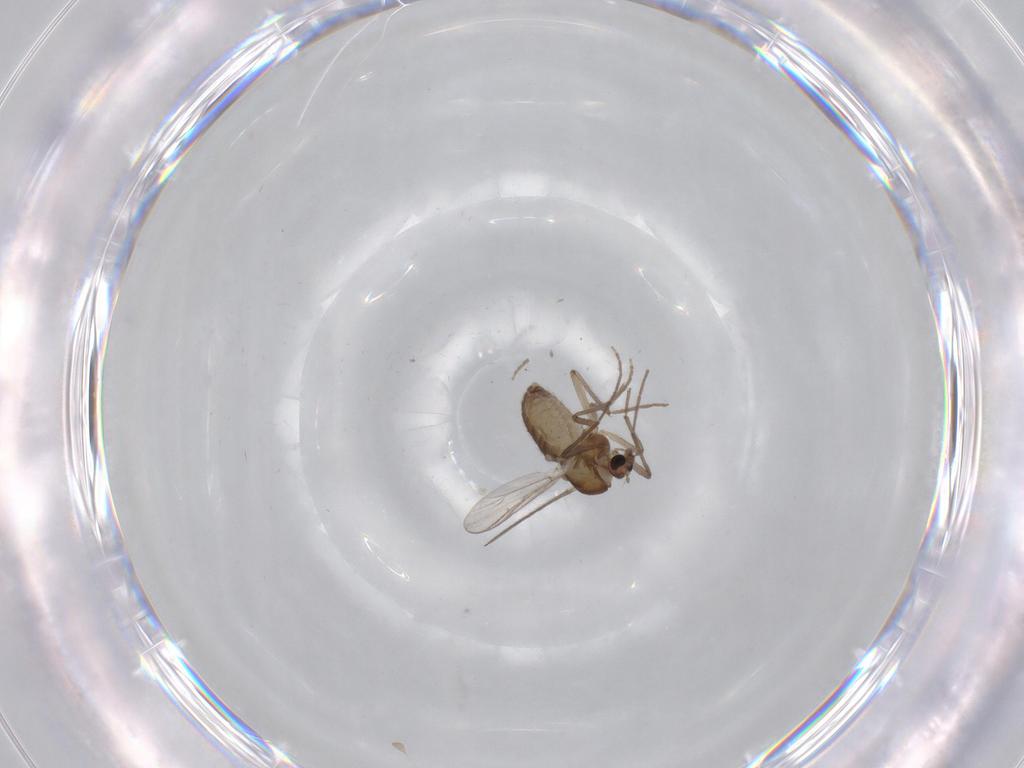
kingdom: Animalia
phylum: Arthropoda
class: Insecta
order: Diptera
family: Chironomidae
